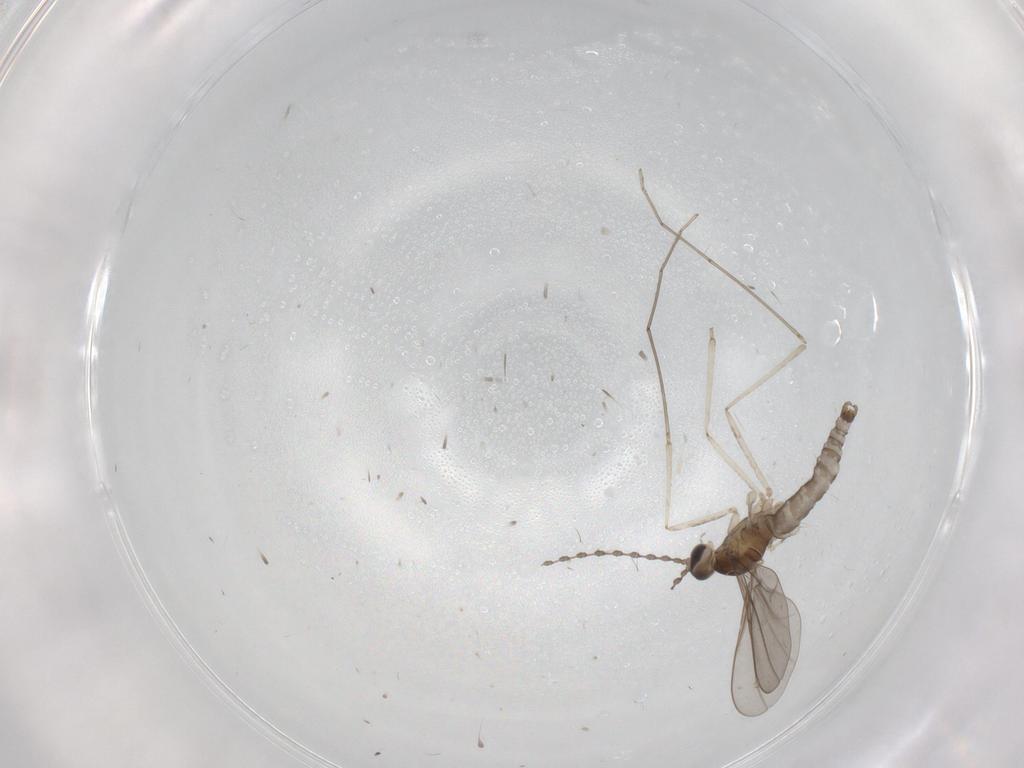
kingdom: Animalia
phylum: Arthropoda
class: Insecta
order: Diptera
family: Cecidomyiidae
